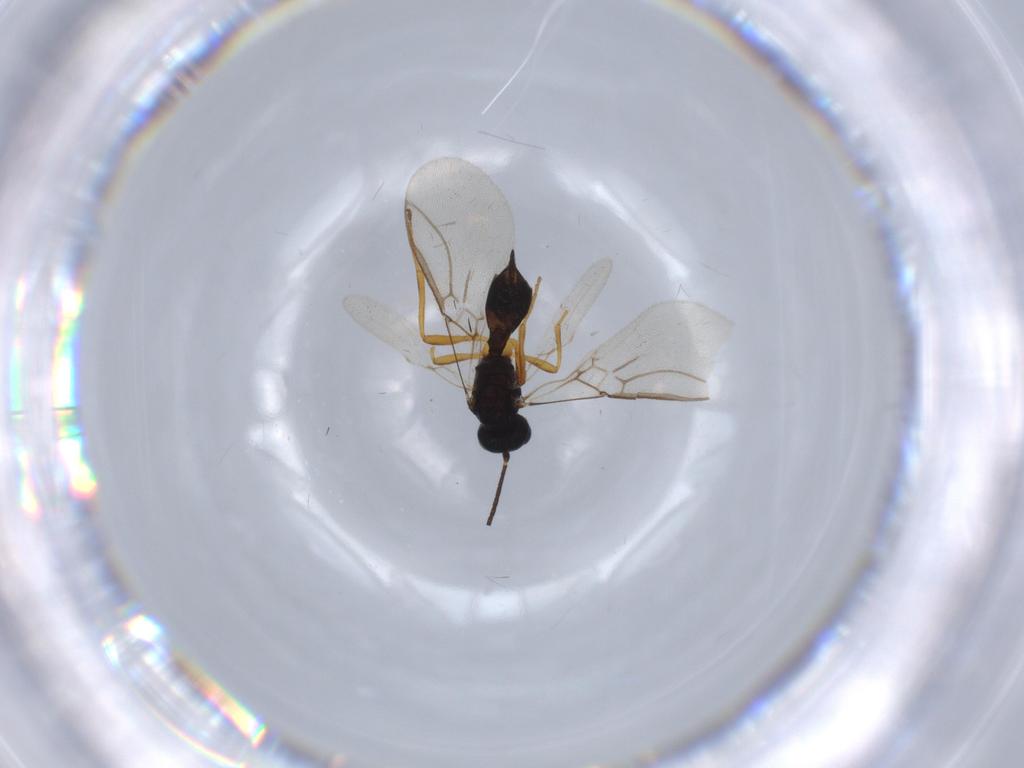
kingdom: Animalia
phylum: Arthropoda
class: Insecta
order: Hymenoptera
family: Braconidae
